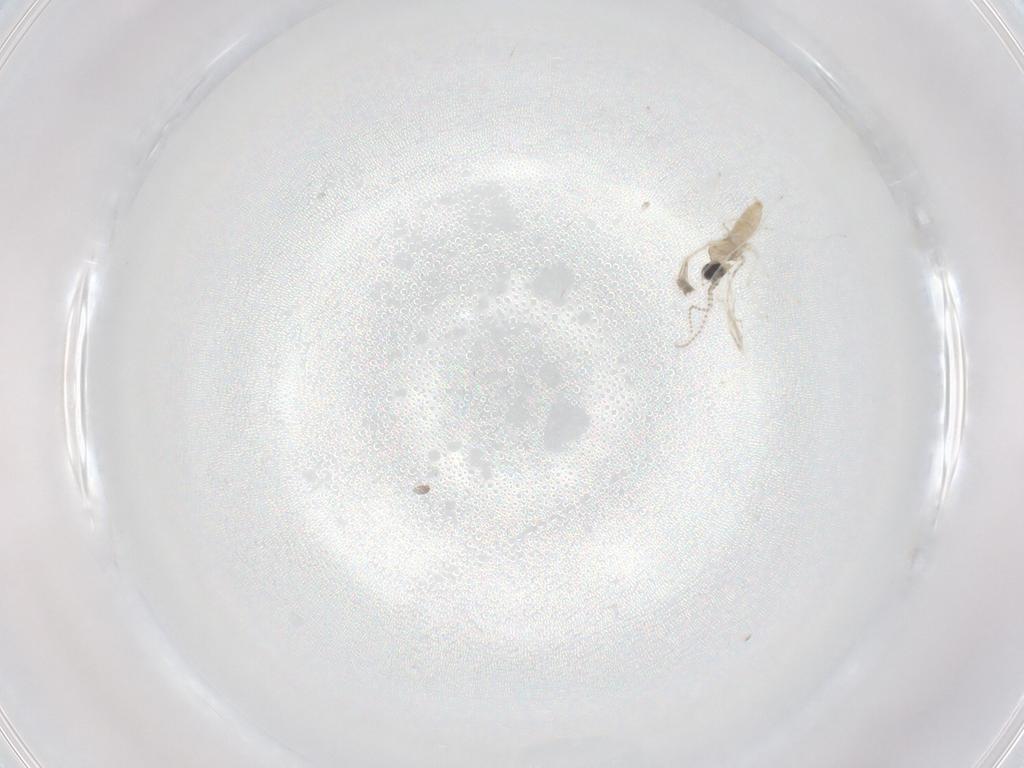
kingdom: Animalia
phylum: Arthropoda
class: Insecta
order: Diptera
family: Cecidomyiidae
